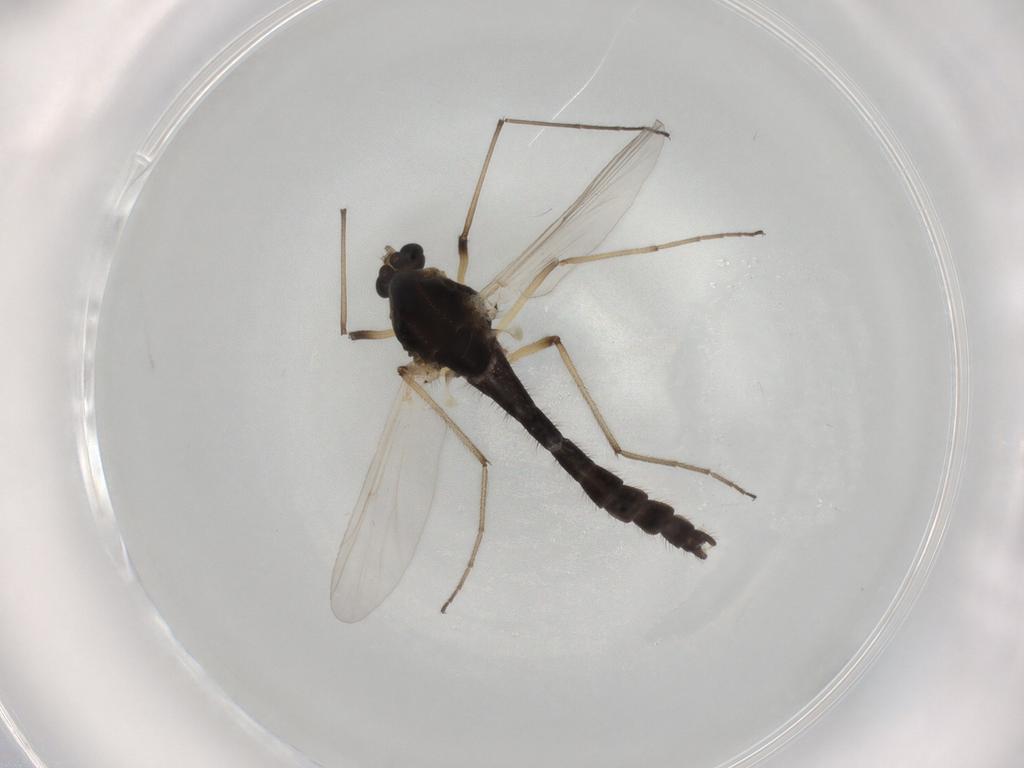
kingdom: Animalia
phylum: Arthropoda
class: Insecta
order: Diptera
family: Chironomidae
